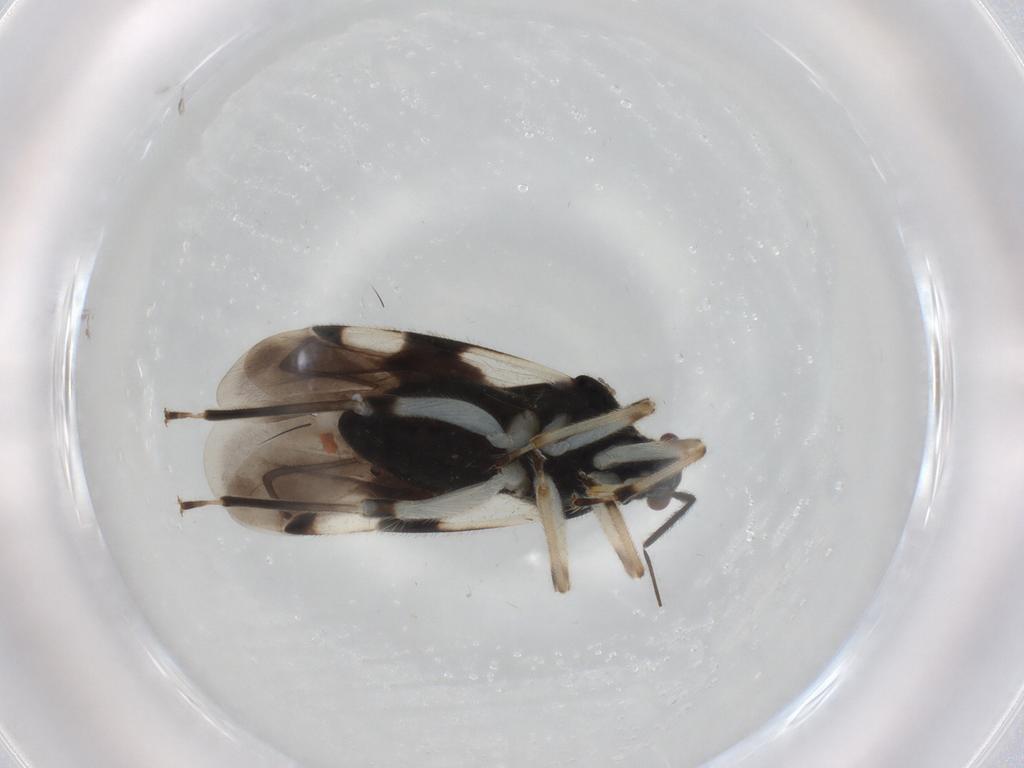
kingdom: Animalia
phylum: Arthropoda
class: Insecta
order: Hemiptera
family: Miridae
